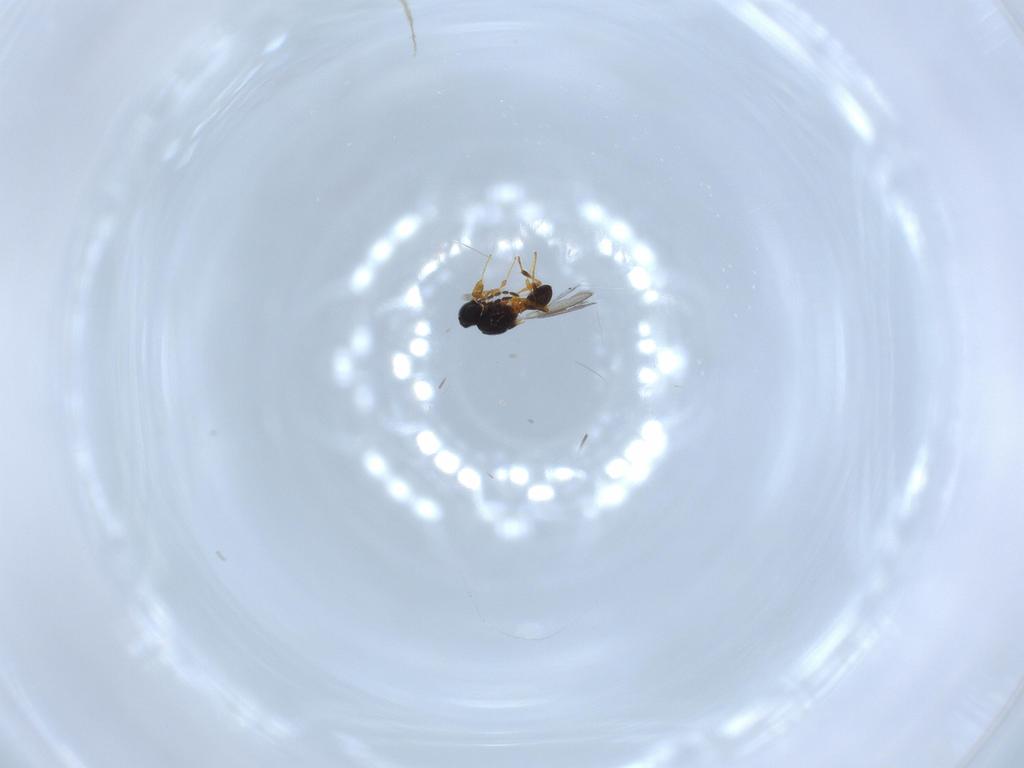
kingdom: Animalia
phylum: Arthropoda
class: Insecta
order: Hymenoptera
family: Platygastridae
